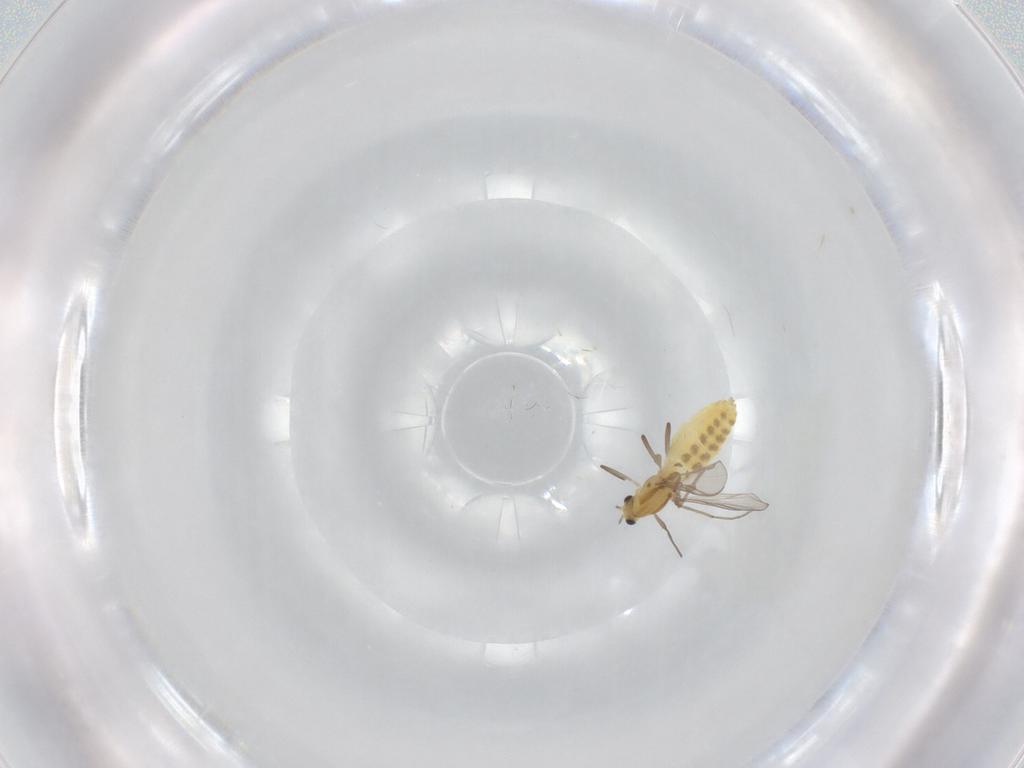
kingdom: Animalia
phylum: Arthropoda
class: Insecta
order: Diptera
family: Chironomidae
